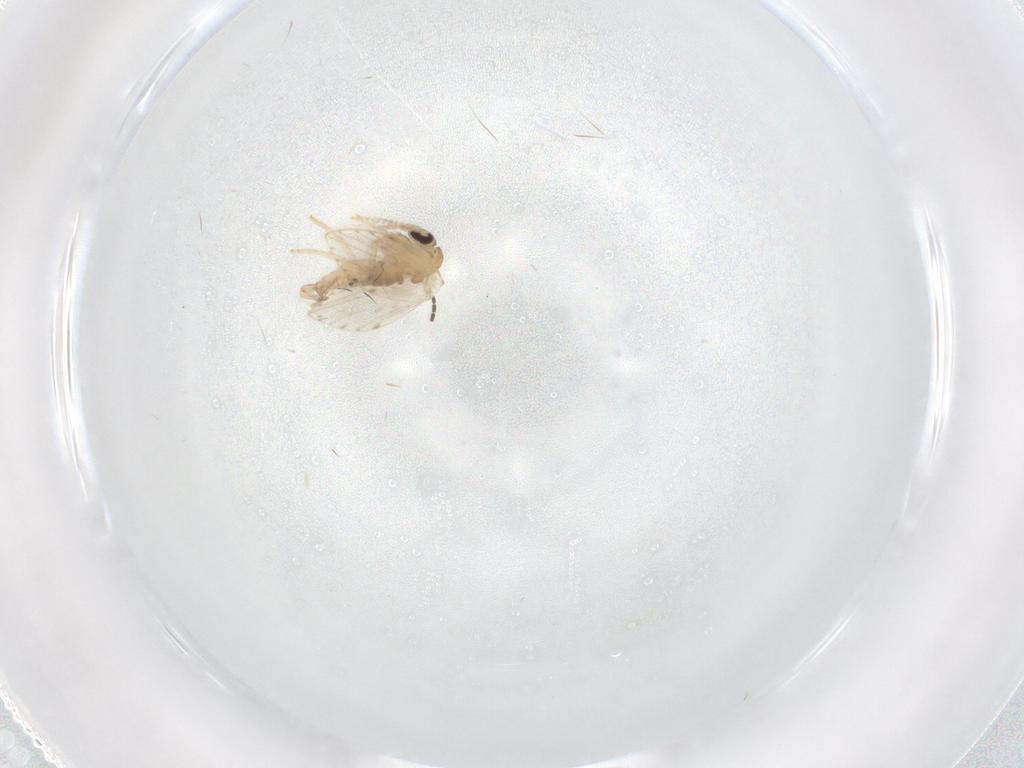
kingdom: Animalia
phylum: Arthropoda
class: Insecta
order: Diptera
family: Psychodidae
